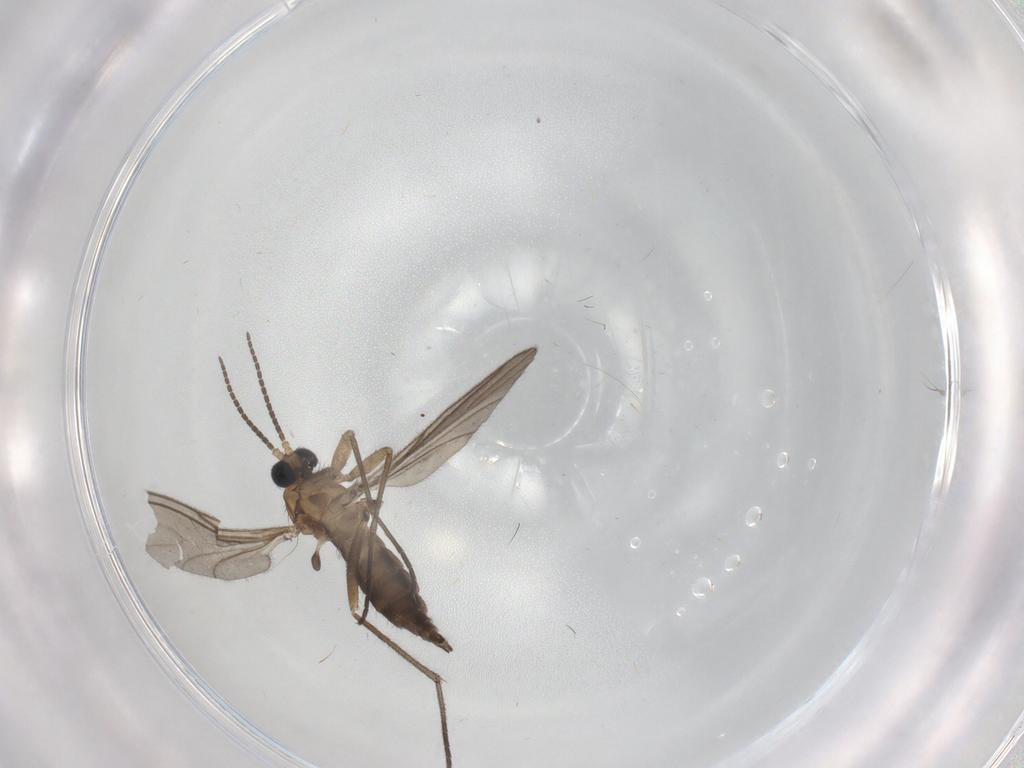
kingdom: Animalia
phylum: Arthropoda
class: Insecta
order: Diptera
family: Sciaridae
